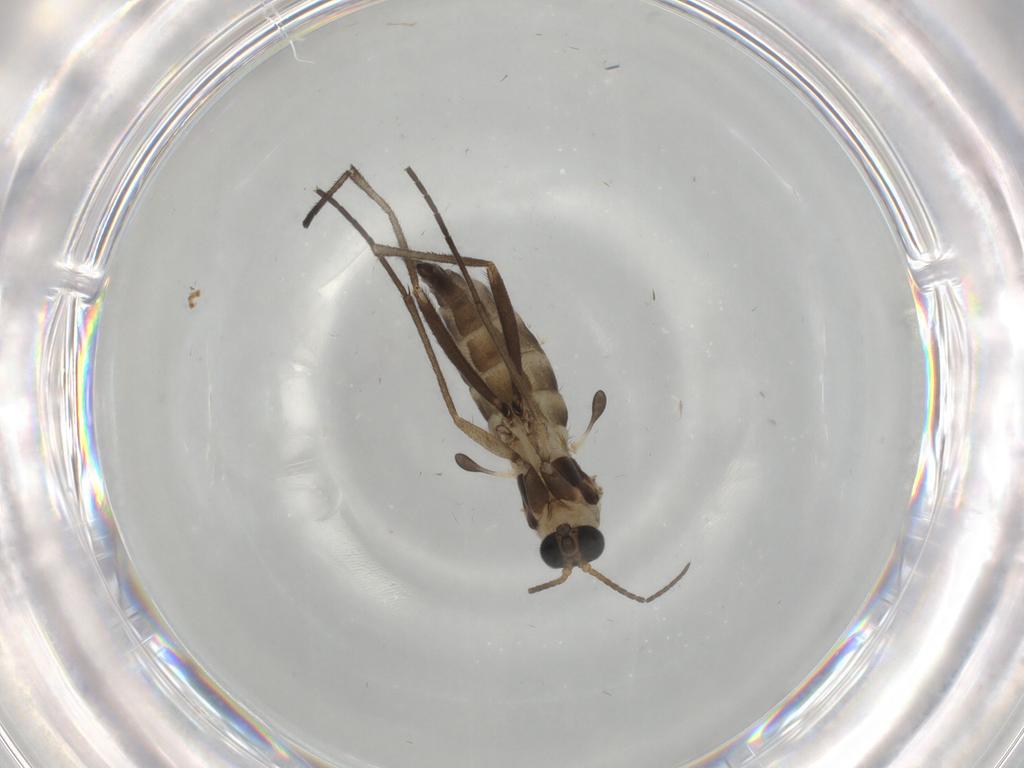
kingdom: Animalia
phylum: Arthropoda
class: Insecta
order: Diptera
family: Sciaridae
